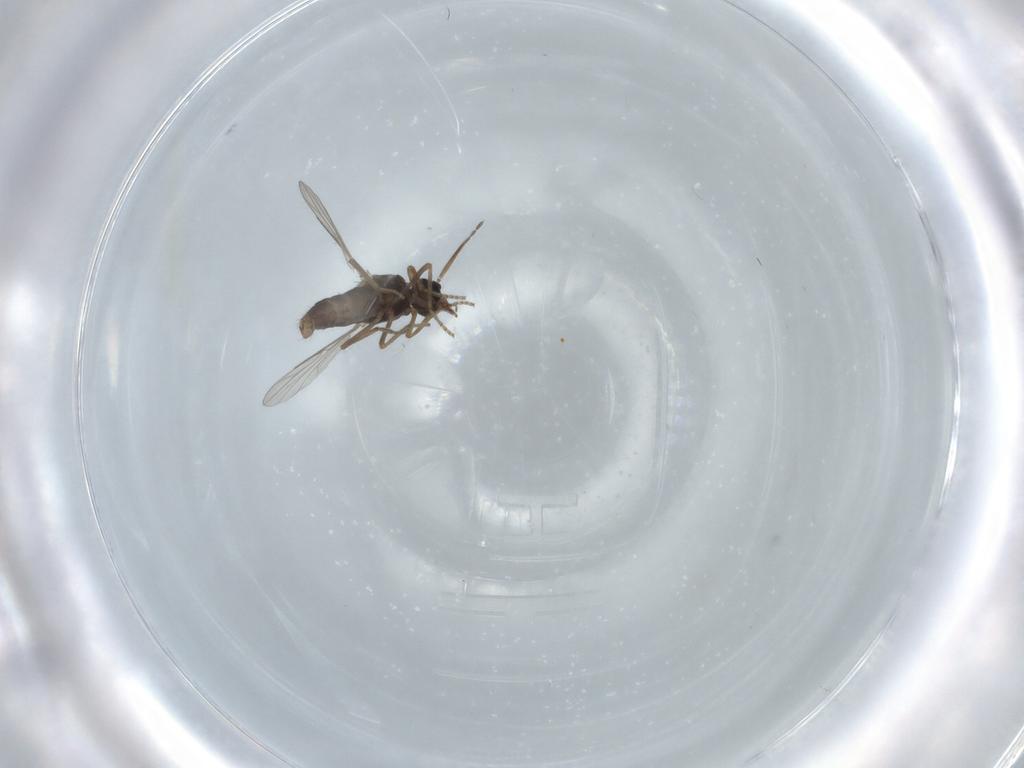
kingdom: Animalia
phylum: Arthropoda
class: Insecta
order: Diptera
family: Ceratopogonidae
